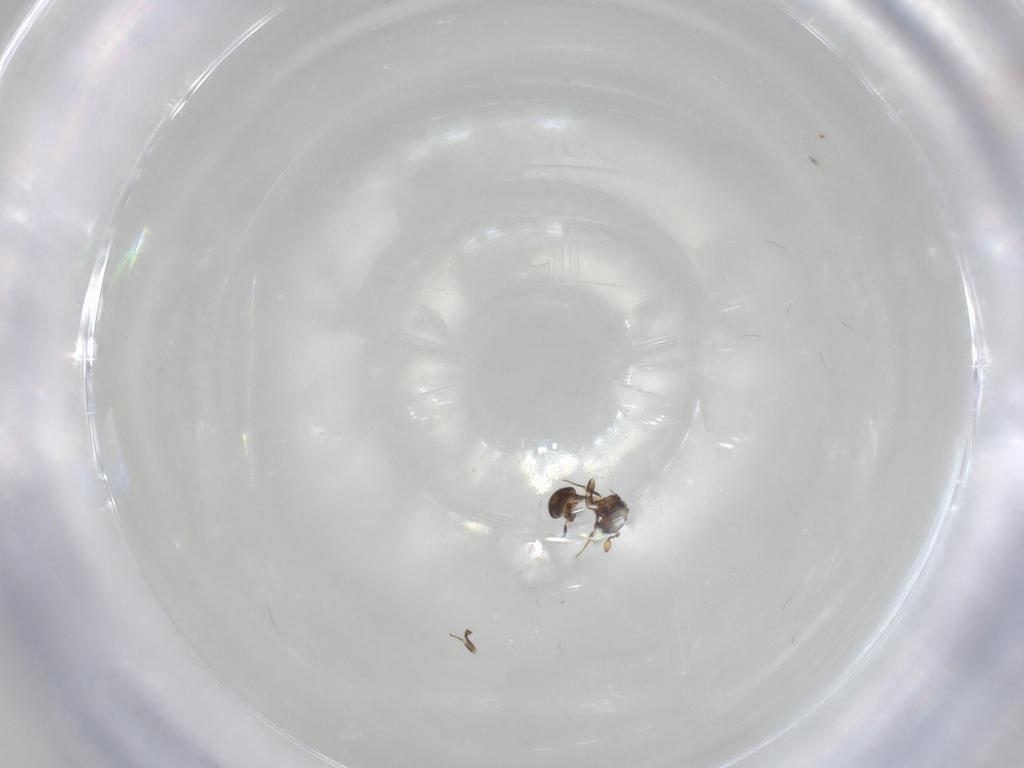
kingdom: Animalia
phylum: Arthropoda
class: Insecta
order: Hymenoptera
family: Scelionidae
